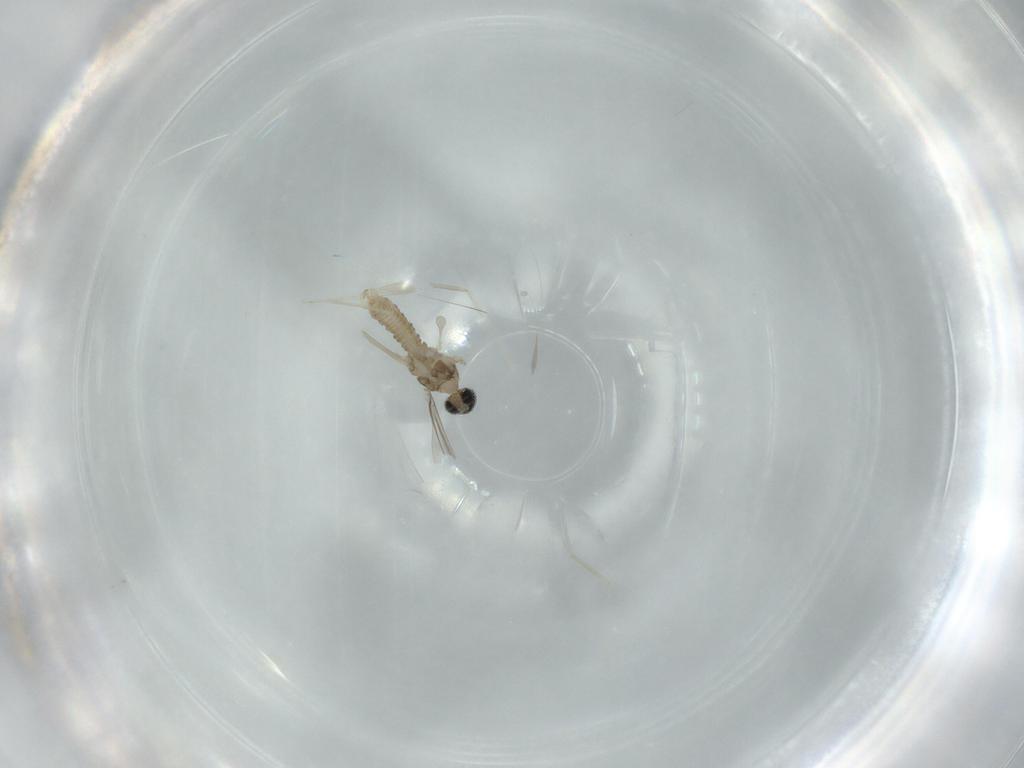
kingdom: Animalia
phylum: Arthropoda
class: Insecta
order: Diptera
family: Cecidomyiidae
